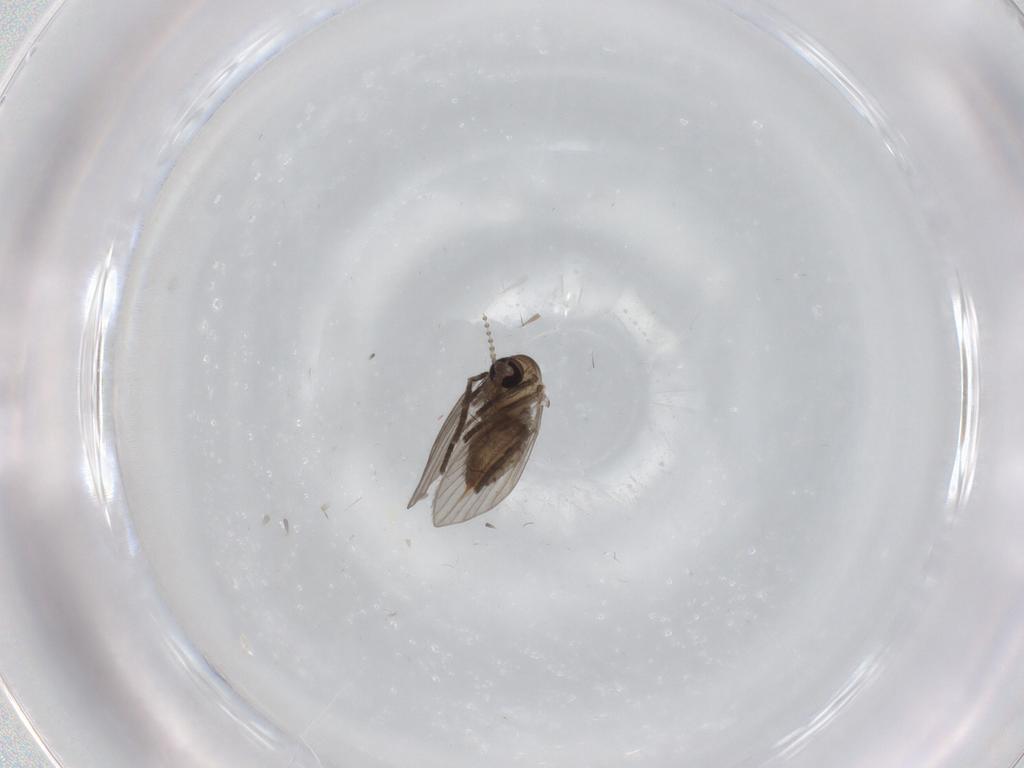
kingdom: Animalia
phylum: Arthropoda
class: Insecta
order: Diptera
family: Psychodidae
